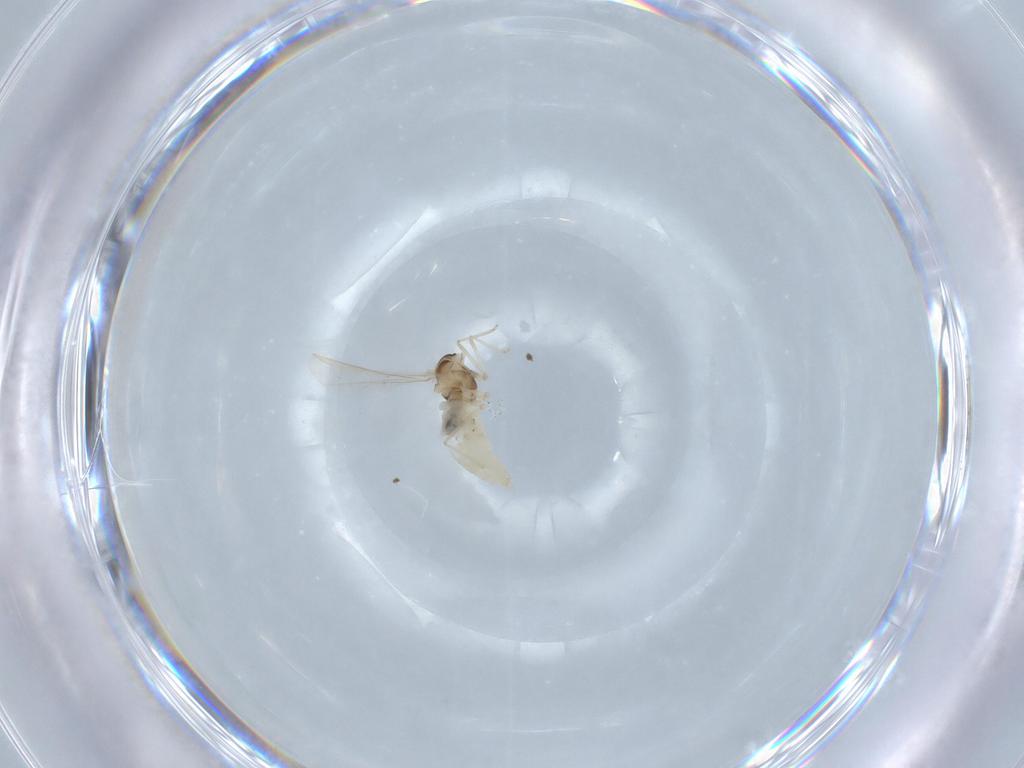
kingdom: Animalia
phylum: Arthropoda
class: Insecta
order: Diptera
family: Cecidomyiidae
